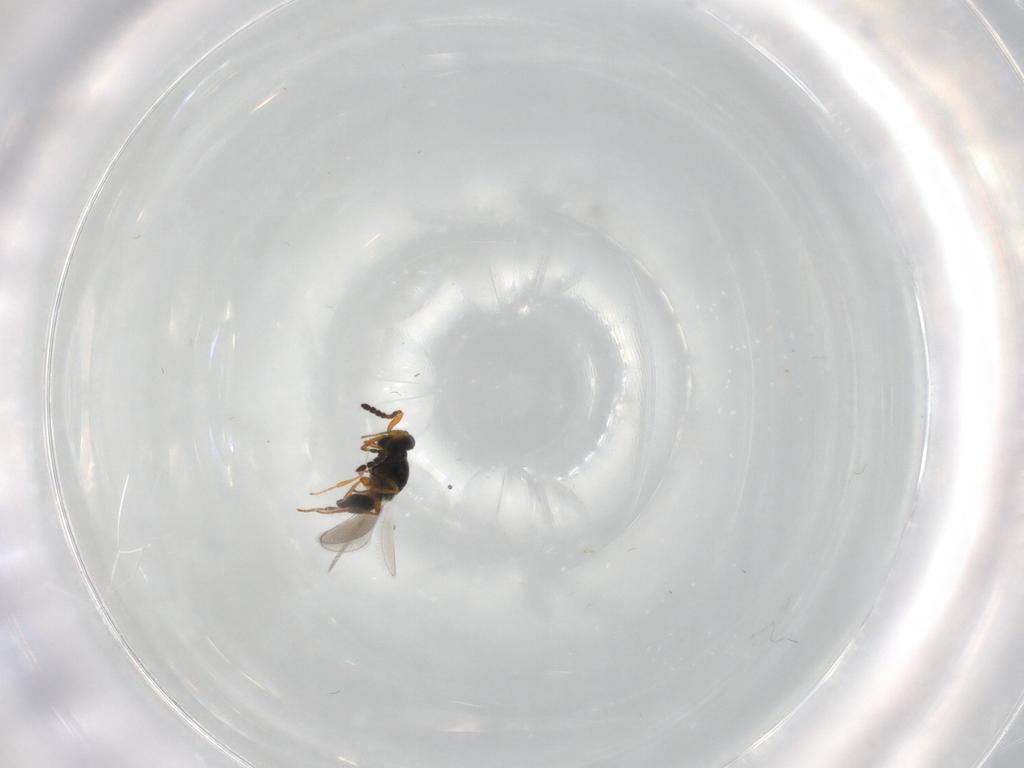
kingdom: Animalia
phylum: Arthropoda
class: Insecta
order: Hymenoptera
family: Platygastridae
